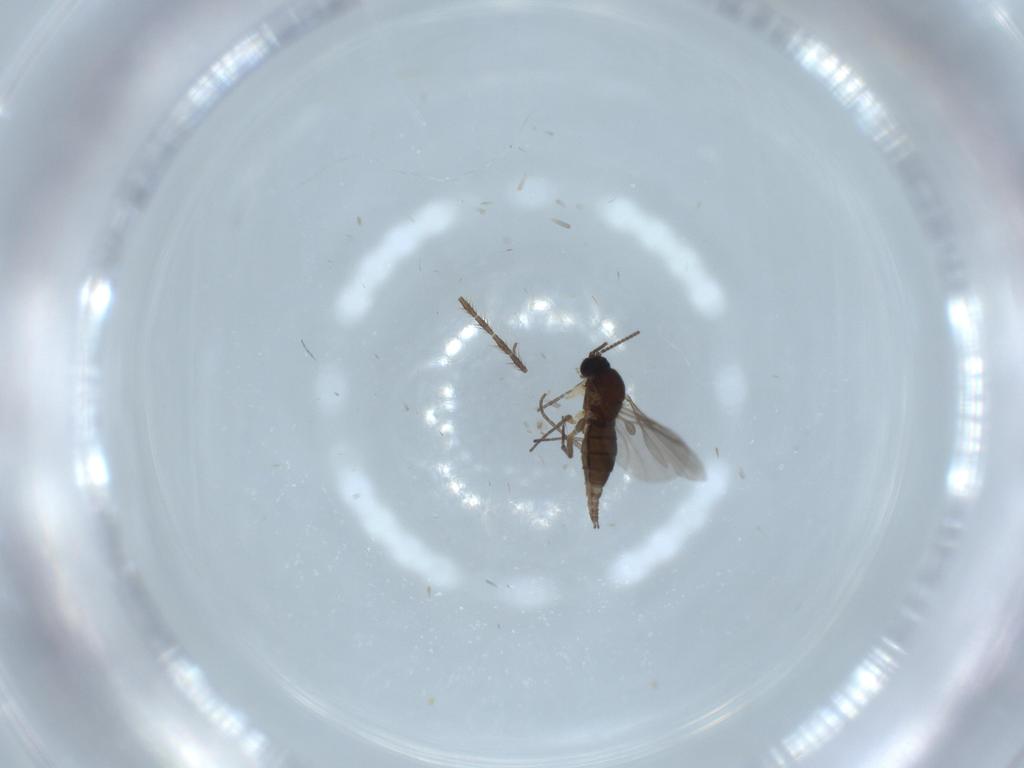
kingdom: Animalia
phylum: Arthropoda
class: Insecta
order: Diptera
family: Sciaridae
